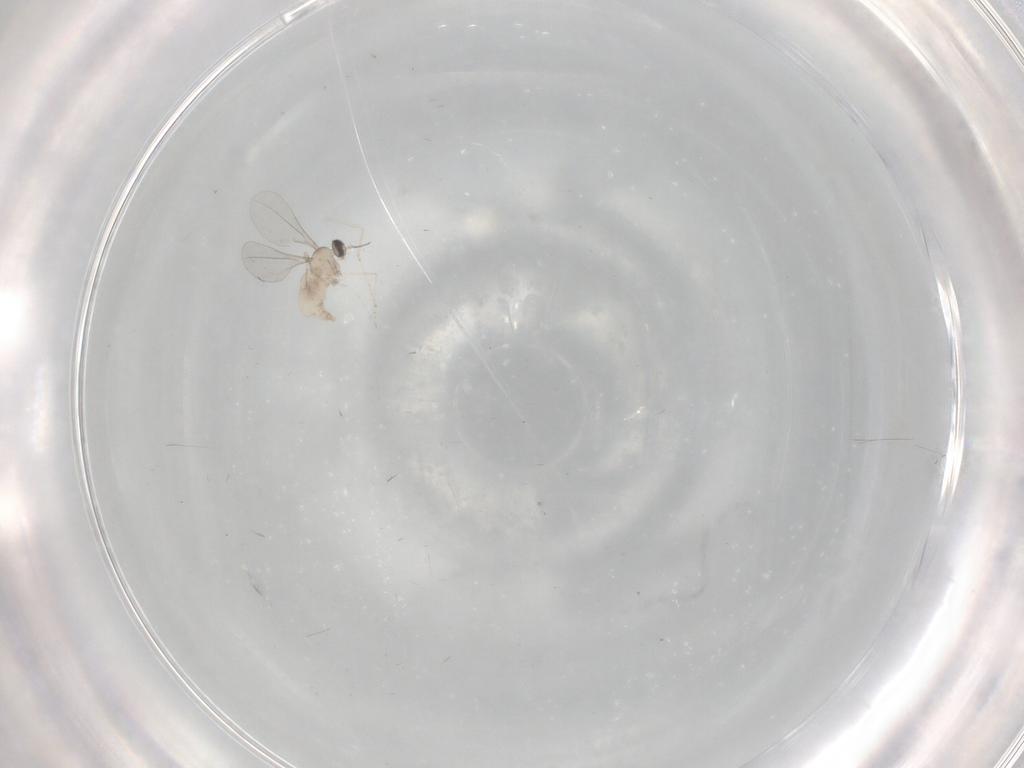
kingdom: Animalia
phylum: Arthropoda
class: Insecta
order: Diptera
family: Cecidomyiidae
